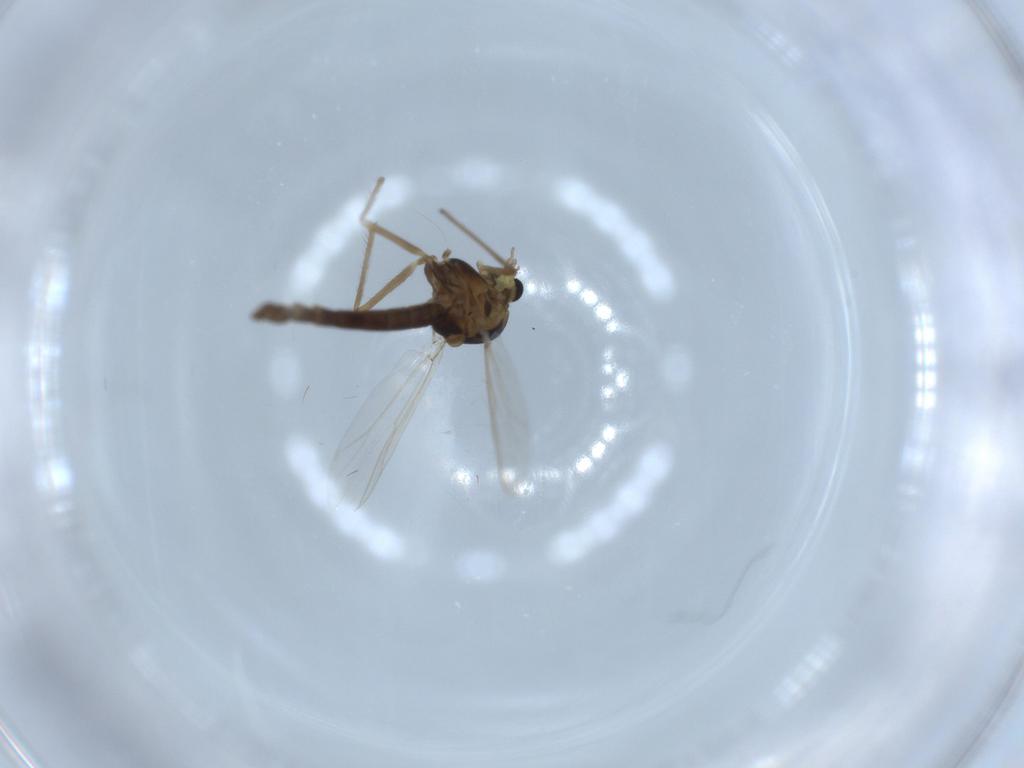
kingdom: Animalia
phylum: Arthropoda
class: Insecta
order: Diptera
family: Chironomidae
